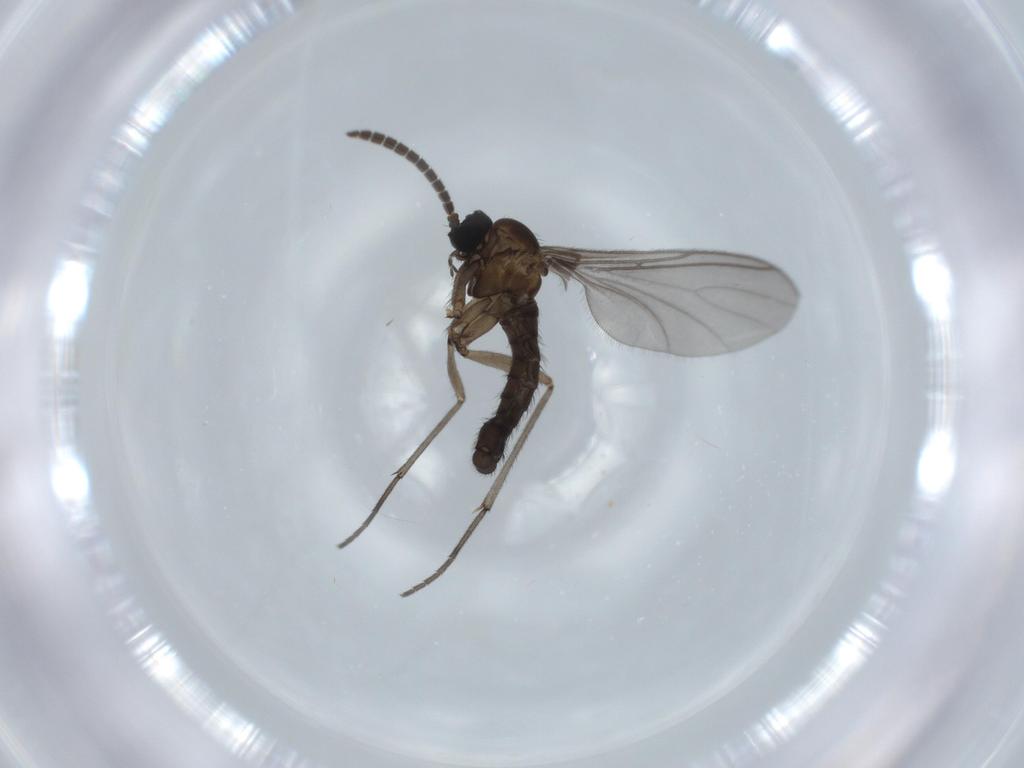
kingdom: Animalia
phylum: Arthropoda
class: Insecta
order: Diptera
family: Sciaridae
